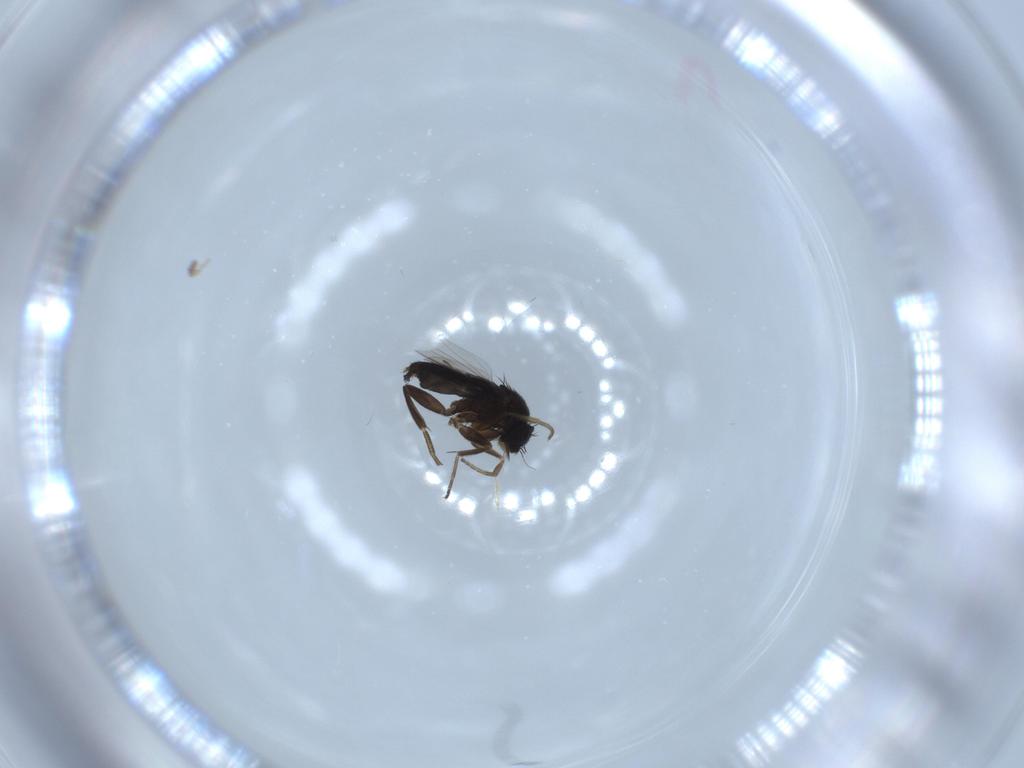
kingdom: Animalia
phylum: Arthropoda
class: Insecta
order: Diptera
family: Phoridae
